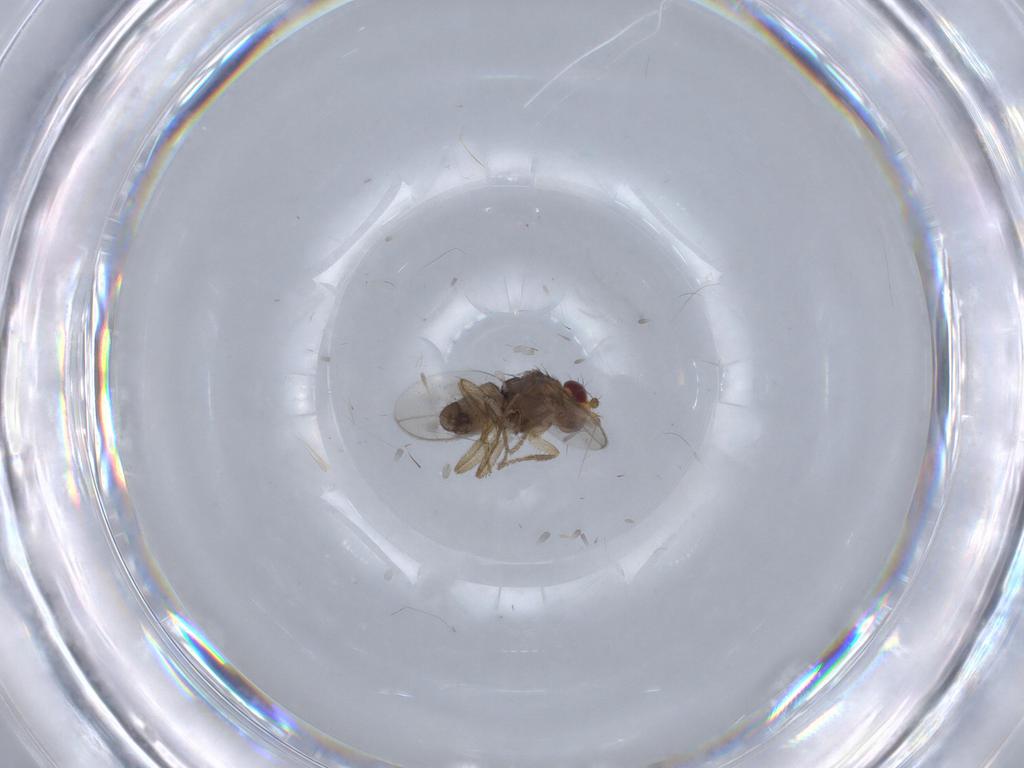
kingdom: Animalia
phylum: Arthropoda
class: Insecta
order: Diptera
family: Sphaeroceridae
